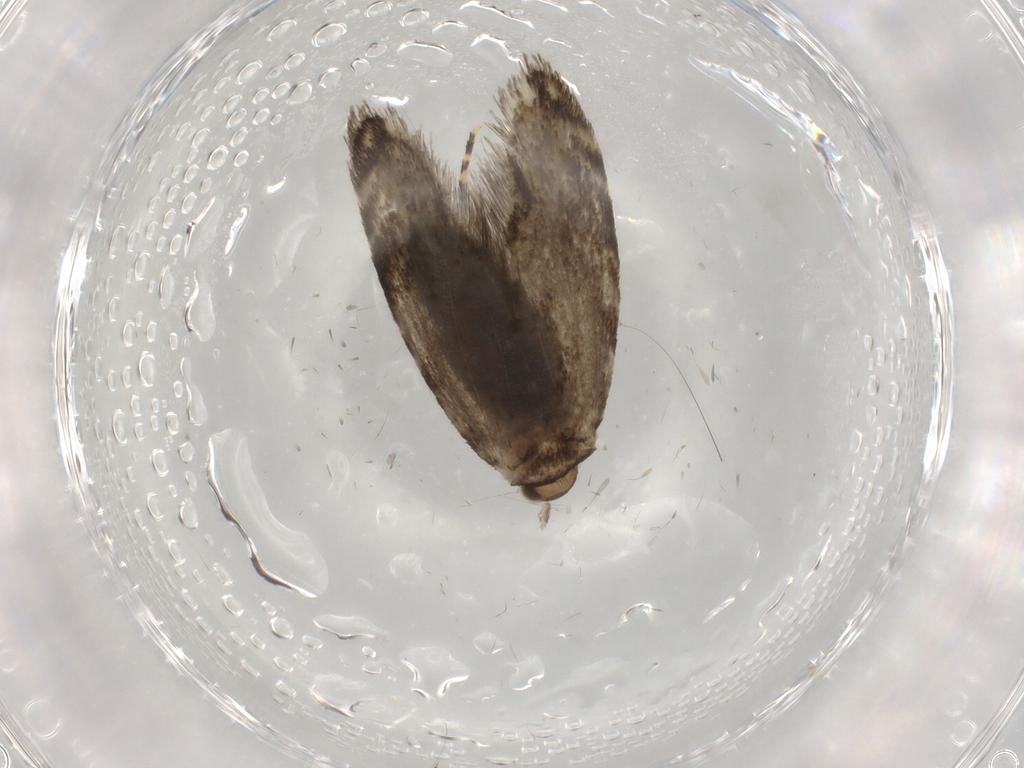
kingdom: Animalia
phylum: Arthropoda
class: Insecta
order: Lepidoptera
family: Tineidae
